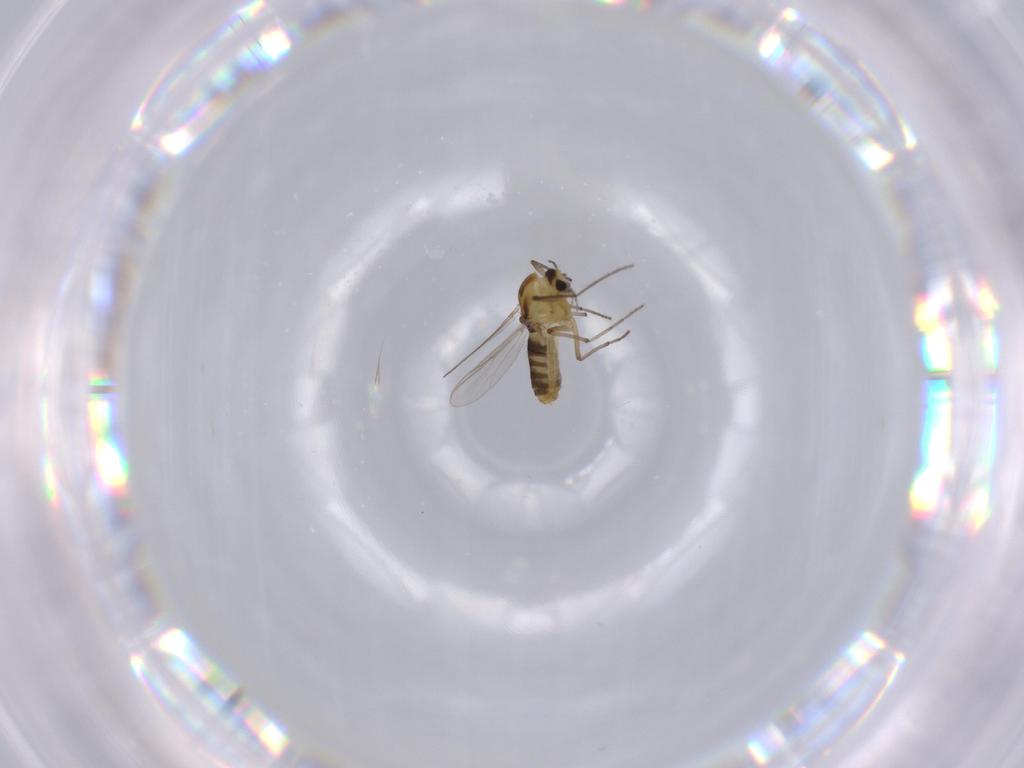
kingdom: Animalia
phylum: Arthropoda
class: Insecta
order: Diptera
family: Chironomidae
